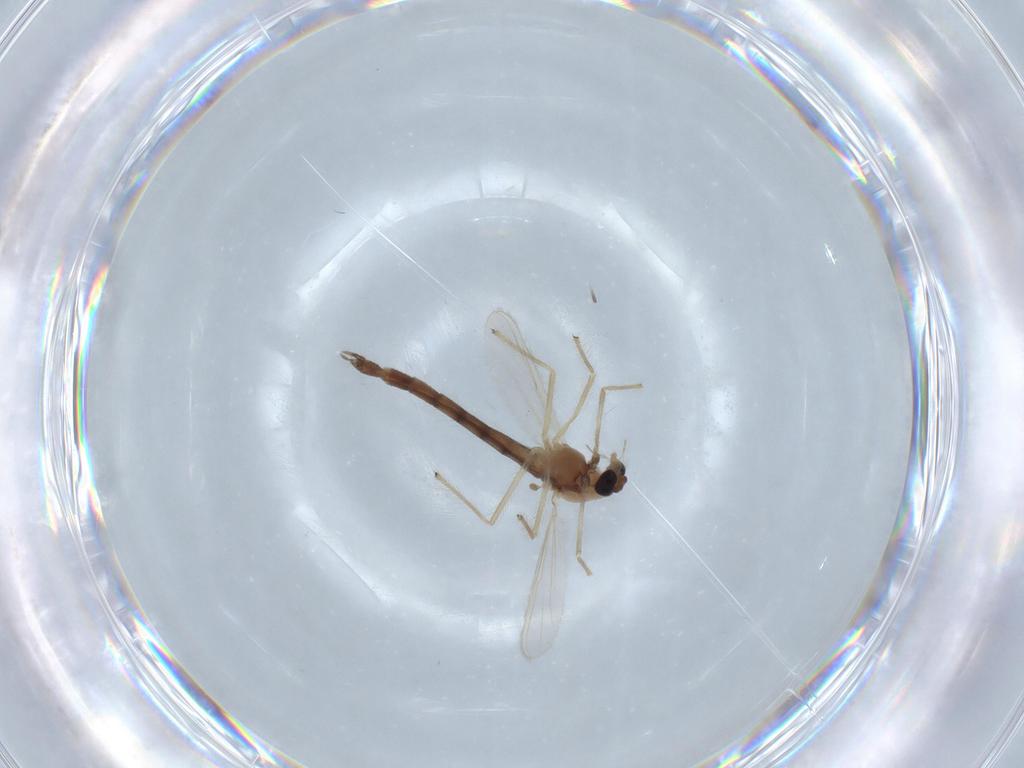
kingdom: Animalia
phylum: Arthropoda
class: Insecta
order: Diptera
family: Chironomidae
